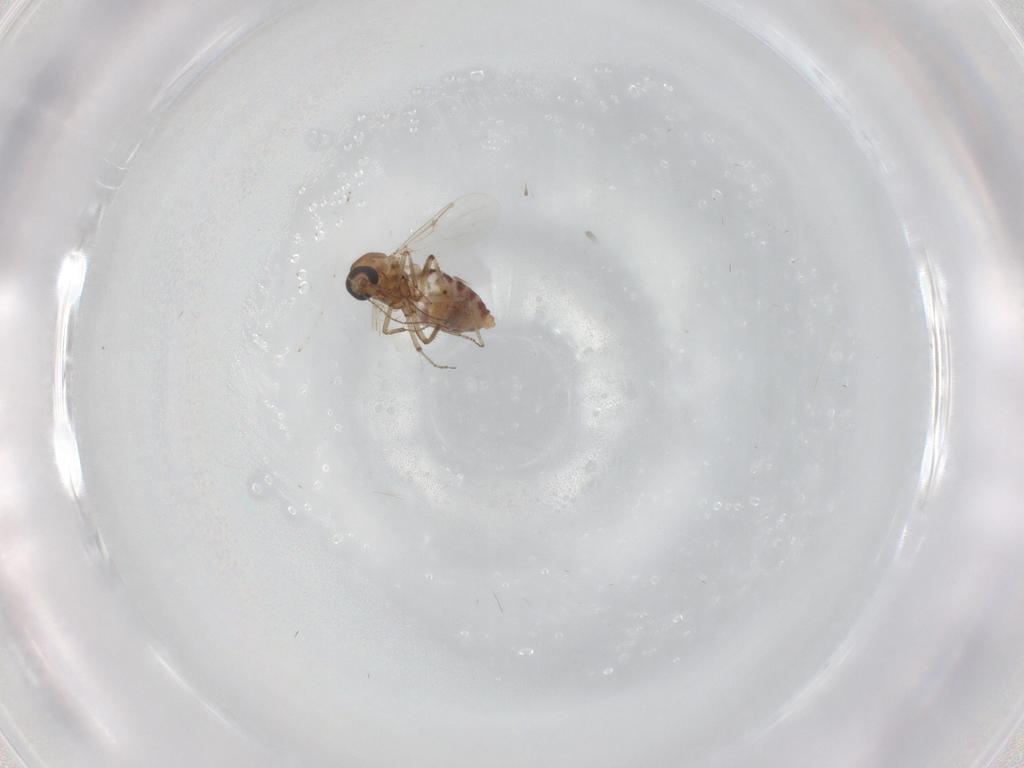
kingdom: Animalia
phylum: Arthropoda
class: Insecta
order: Diptera
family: Ceratopogonidae
